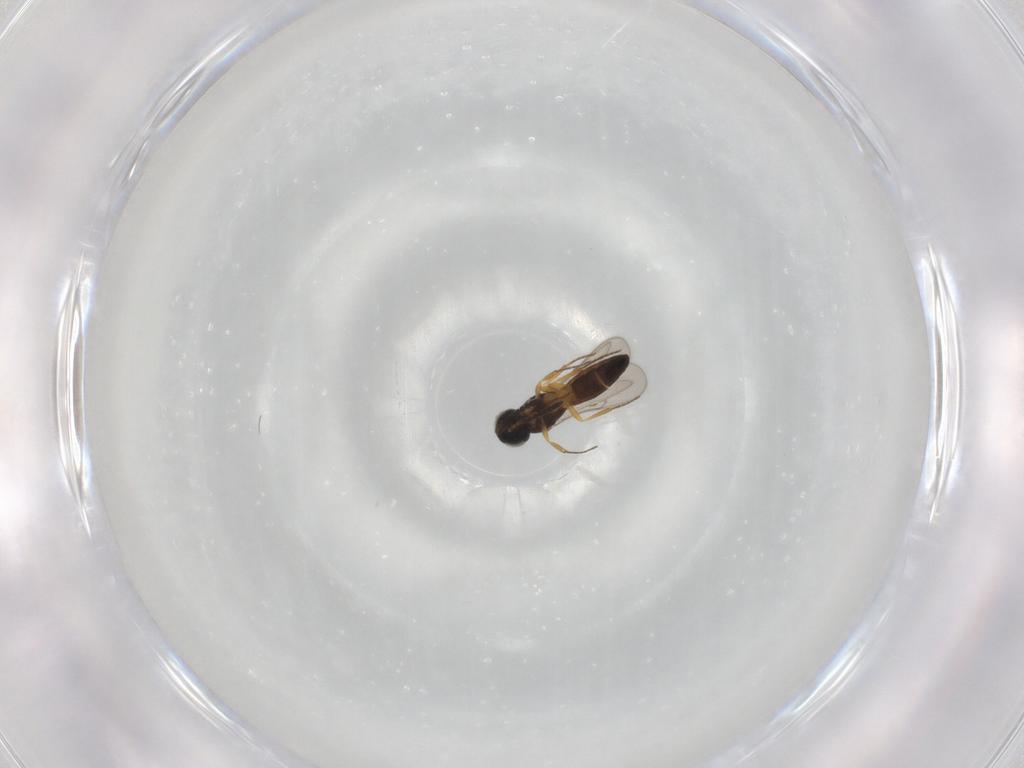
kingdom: Animalia
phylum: Arthropoda
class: Insecta
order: Hymenoptera
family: Scelionidae
